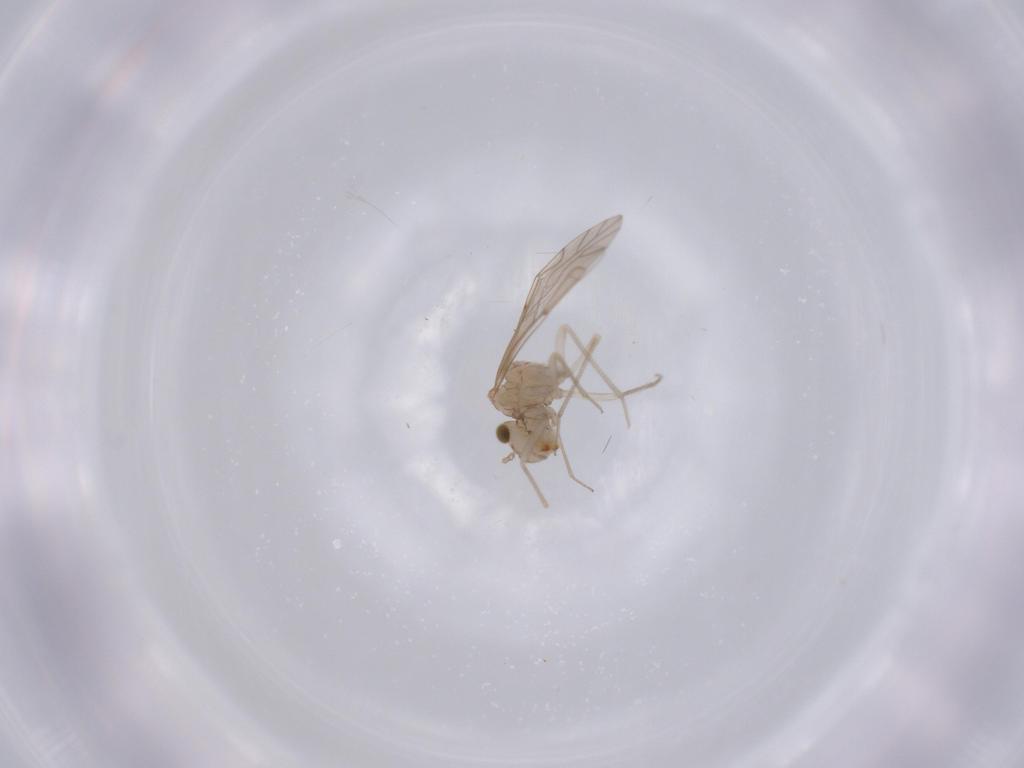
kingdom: Animalia
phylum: Arthropoda
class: Insecta
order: Psocodea
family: Lachesillidae
